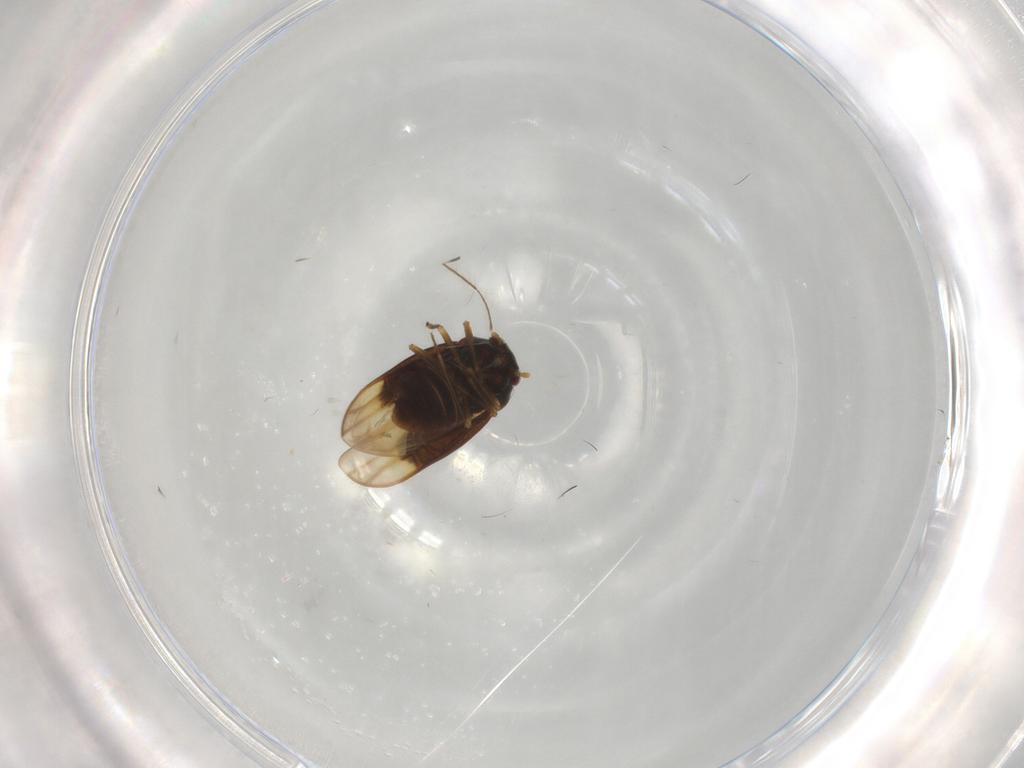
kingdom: Animalia
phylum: Arthropoda
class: Insecta
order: Hemiptera
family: Schizopteridae
